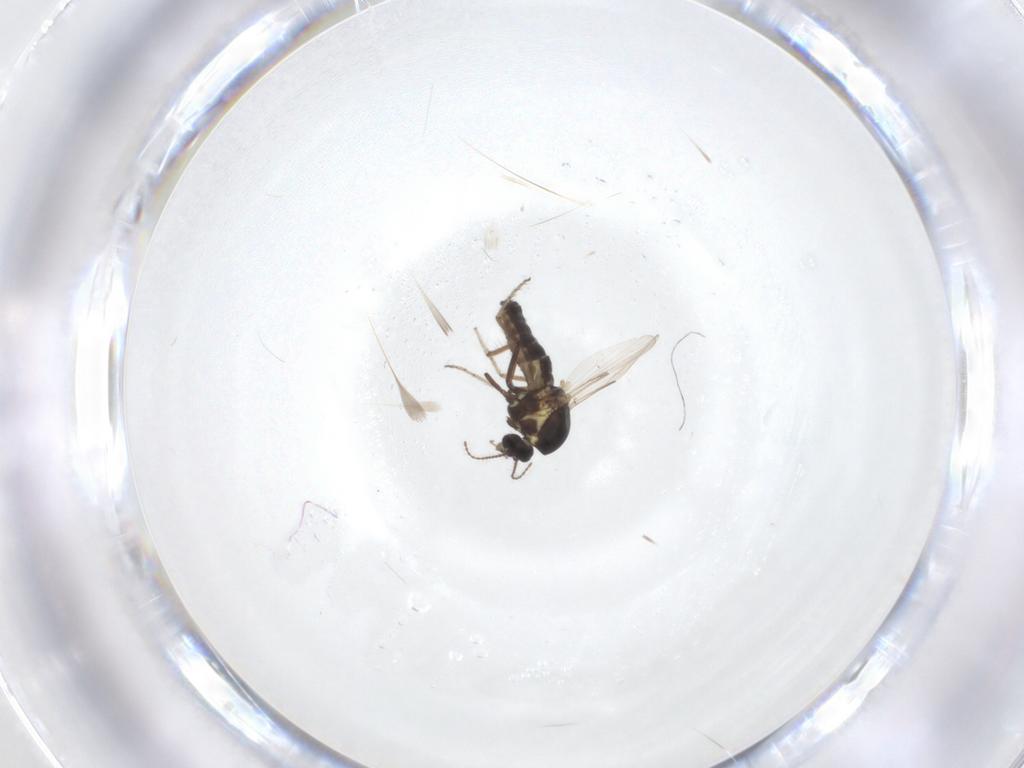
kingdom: Animalia
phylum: Arthropoda
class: Insecta
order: Diptera
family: Ceratopogonidae
